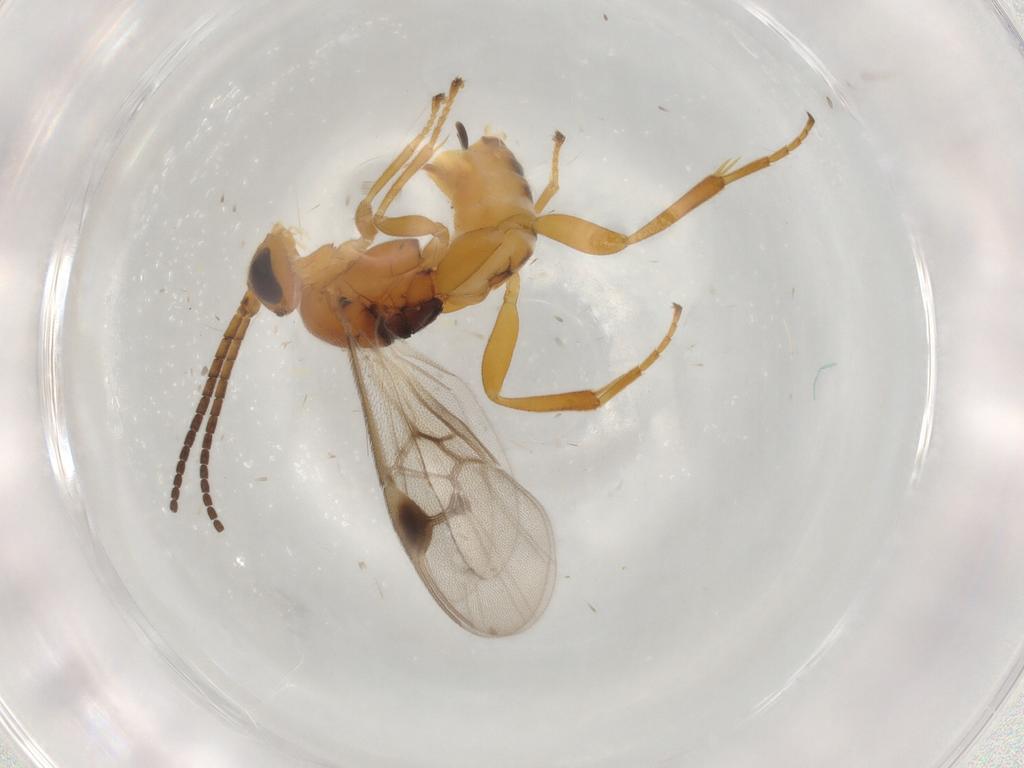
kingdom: Animalia
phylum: Arthropoda
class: Insecta
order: Hymenoptera
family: Braconidae
